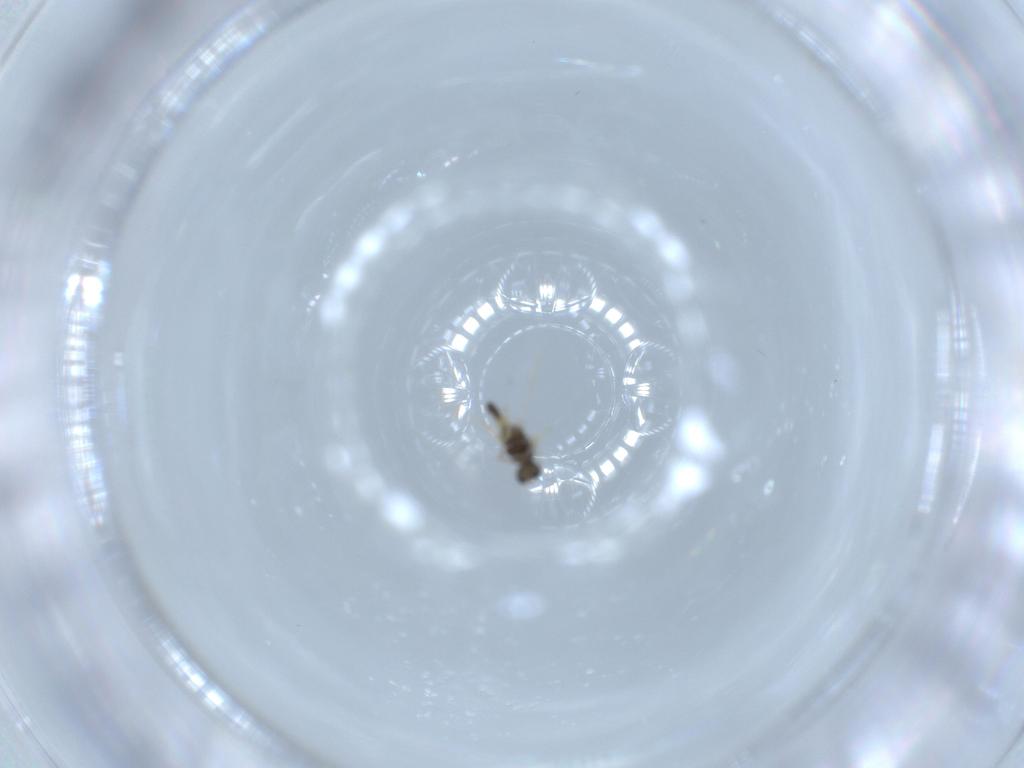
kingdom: Animalia
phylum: Arthropoda
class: Insecta
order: Diptera
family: Chironomidae
